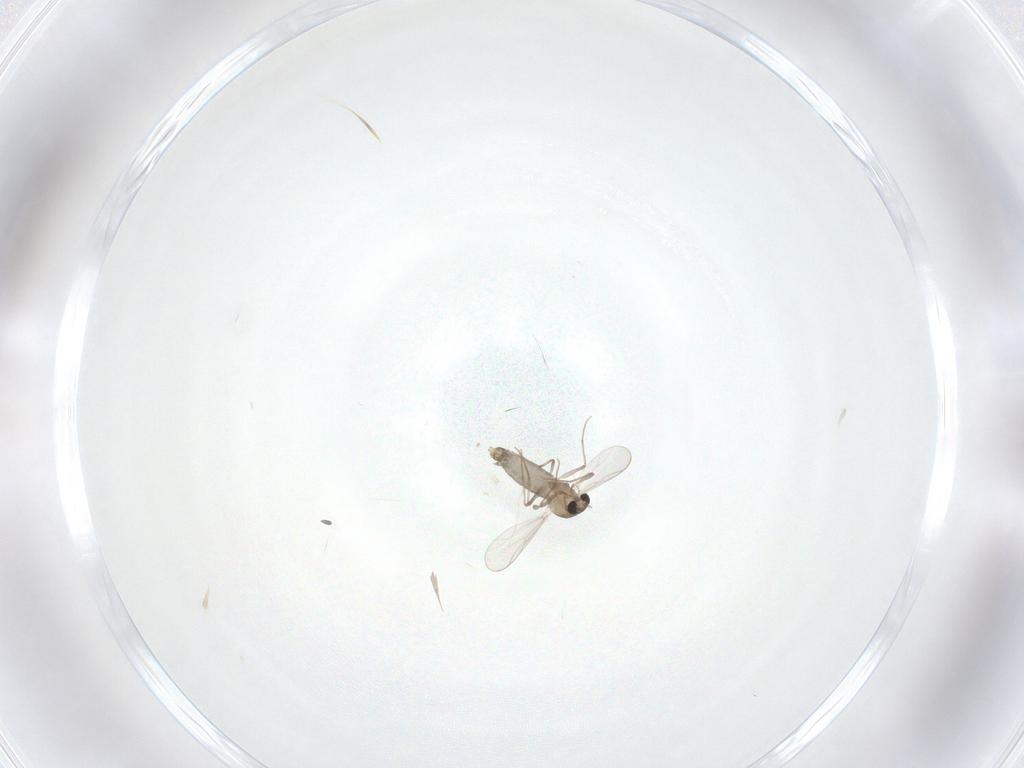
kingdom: Animalia
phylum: Arthropoda
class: Insecta
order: Diptera
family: Chironomidae
